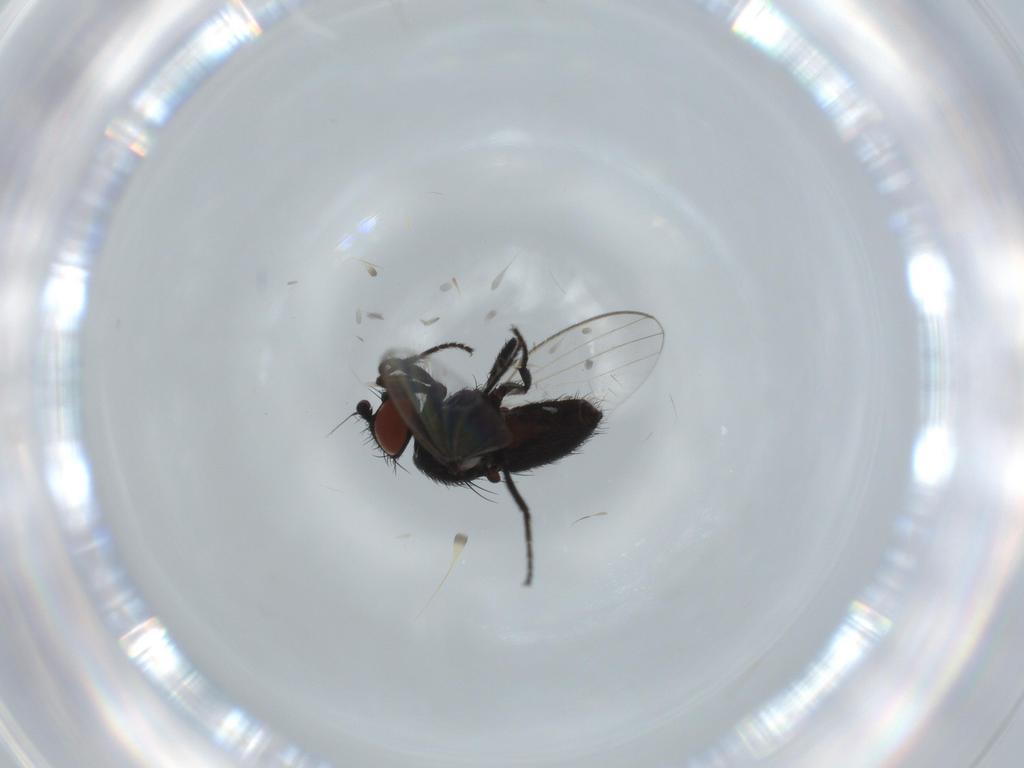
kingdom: Animalia
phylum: Arthropoda
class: Insecta
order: Diptera
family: Milichiidae
